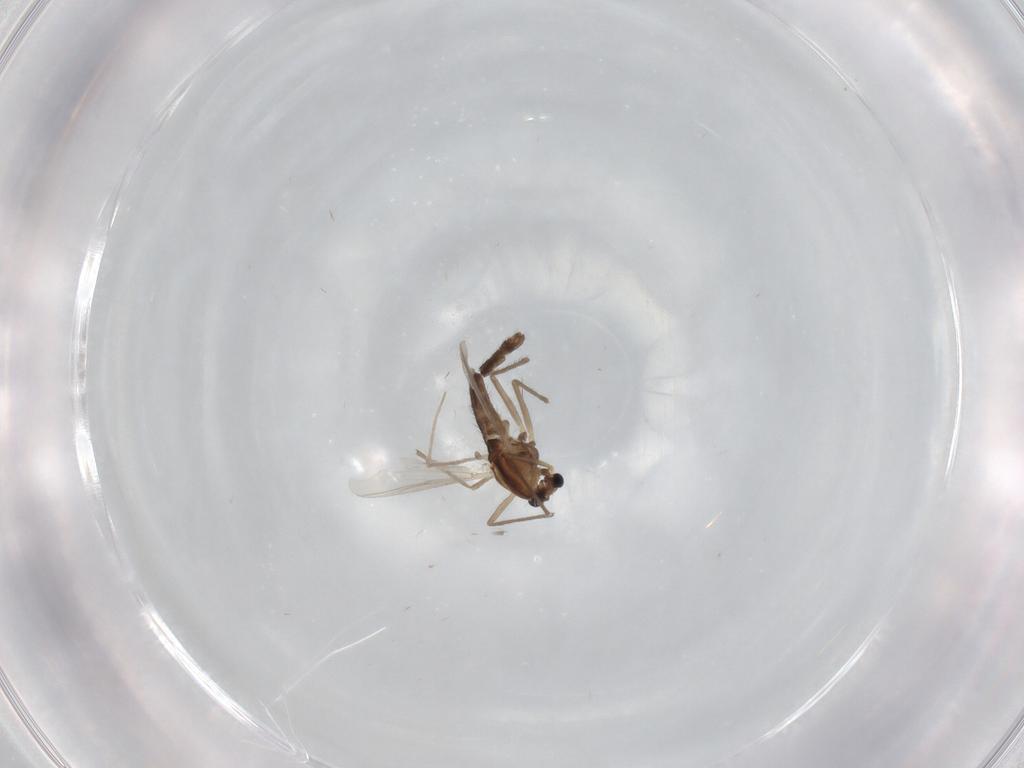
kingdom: Animalia
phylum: Arthropoda
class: Insecta
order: Diptera
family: Chironomidae
